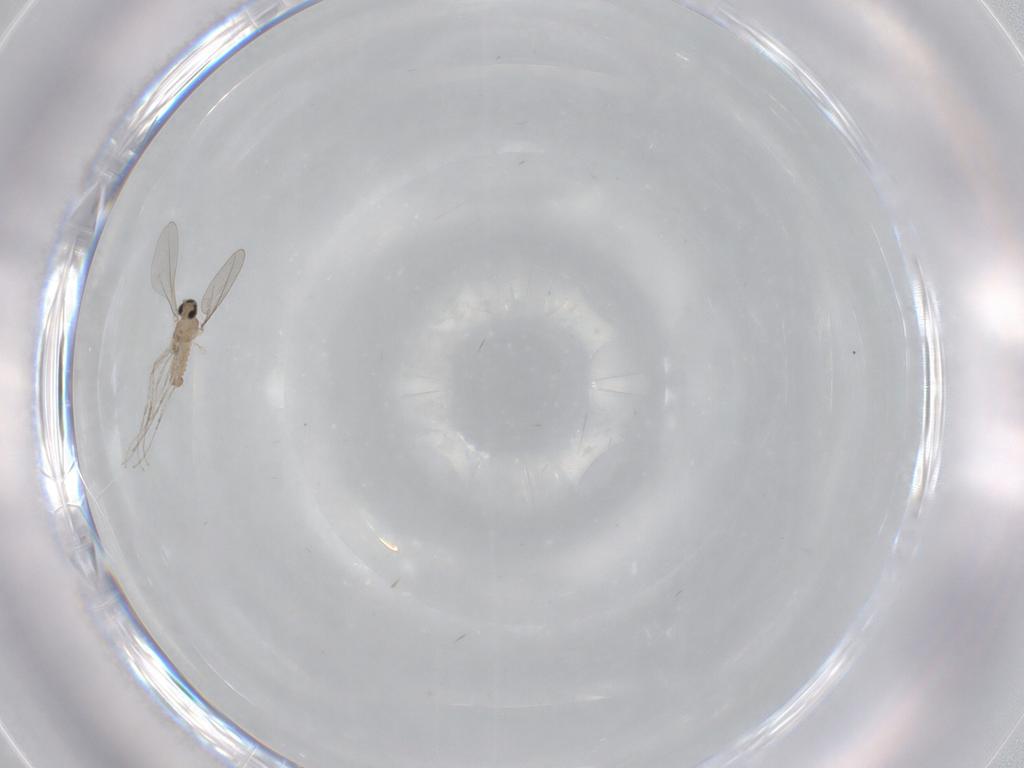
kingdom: Animalia
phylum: Arthropoda
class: Insecta
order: Diptera
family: Cecidomyiidae
